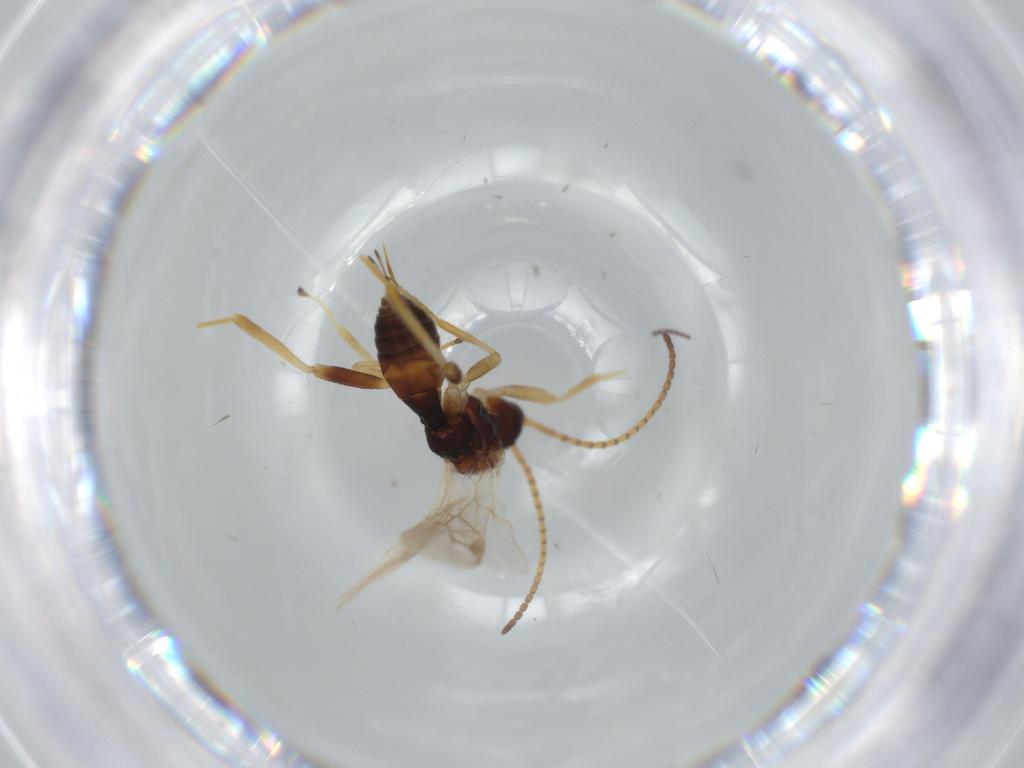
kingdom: Animalia
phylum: Arthropoda
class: Insecta
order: Hymenoptera
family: Braconidae
